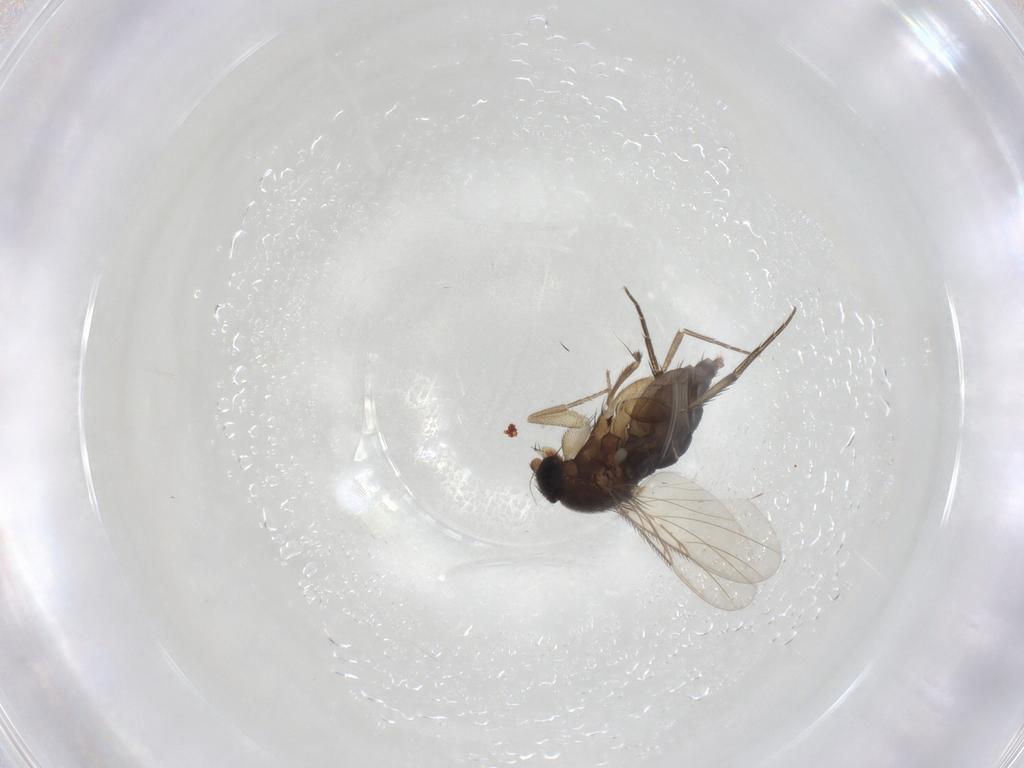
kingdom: Animalia
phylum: Arthropoda
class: Insecta
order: Diptera
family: Phoridae
